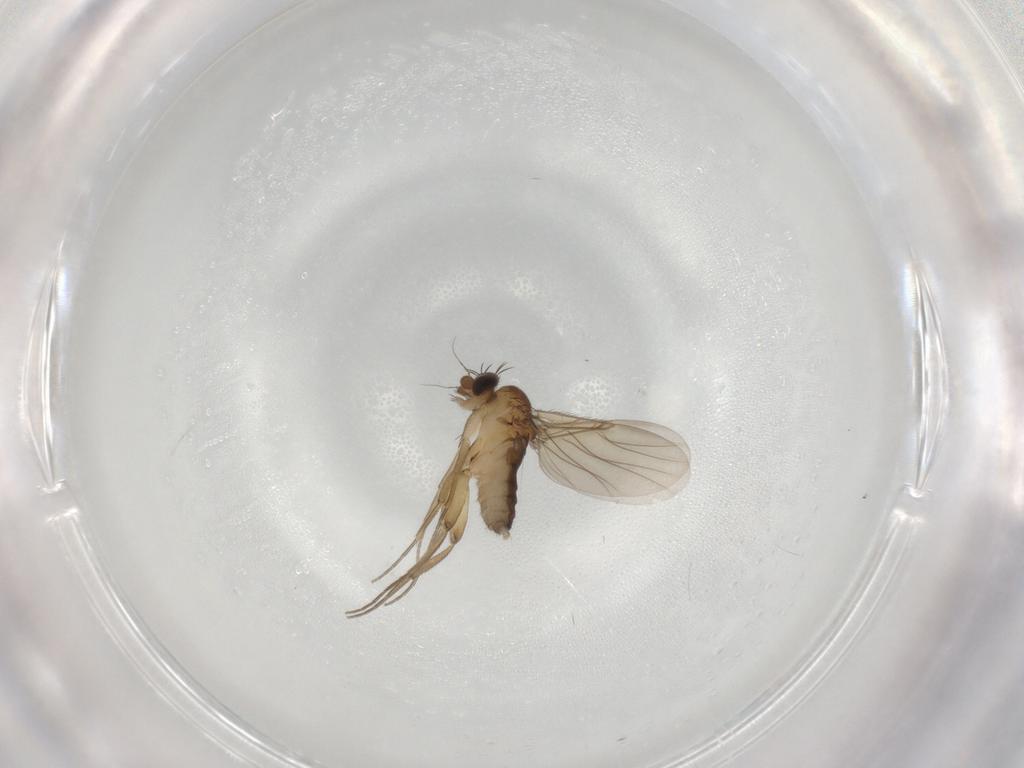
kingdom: Animalia
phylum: Arthropoda
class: Insecta
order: Diptera
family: Phoridae
